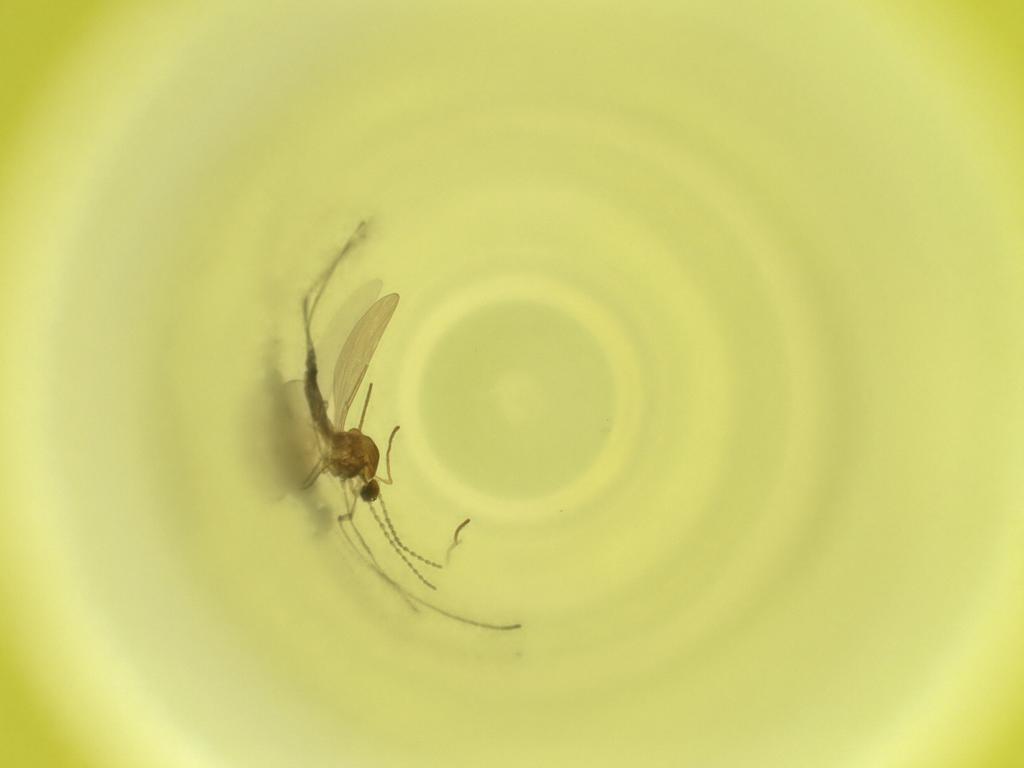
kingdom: Animalia
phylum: Arthropoda
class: Insecta
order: Diptera
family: Cecidomyiidae
